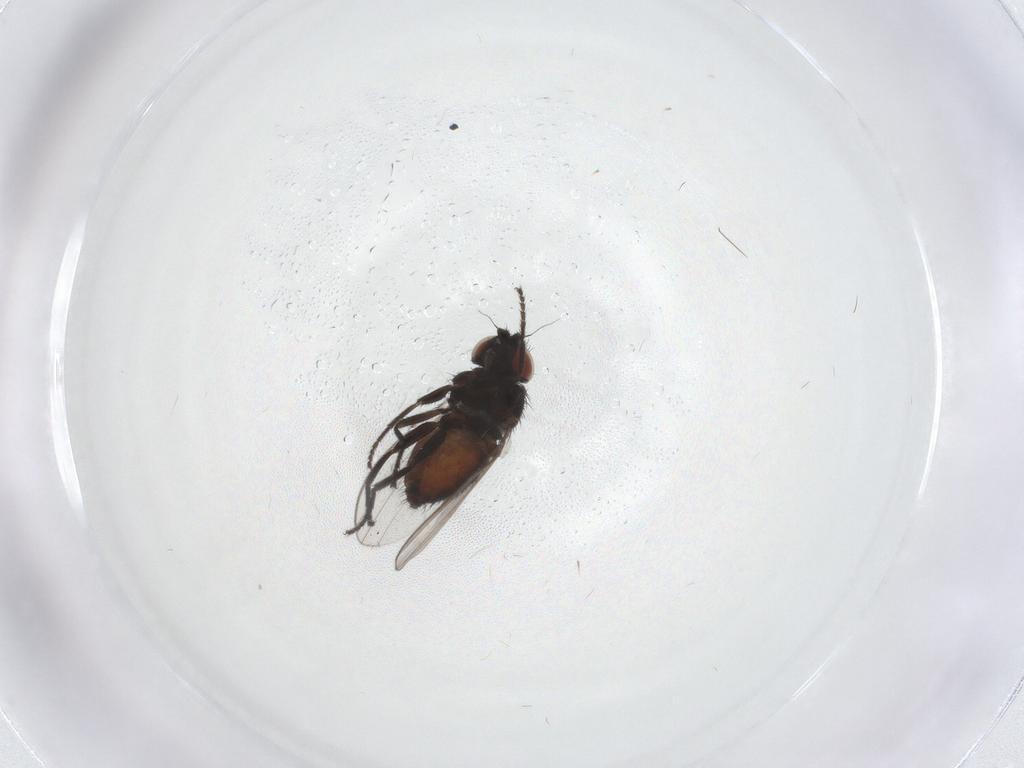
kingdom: Animalia
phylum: Arthropoda
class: Insecta
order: Diptera
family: Milichiidae
